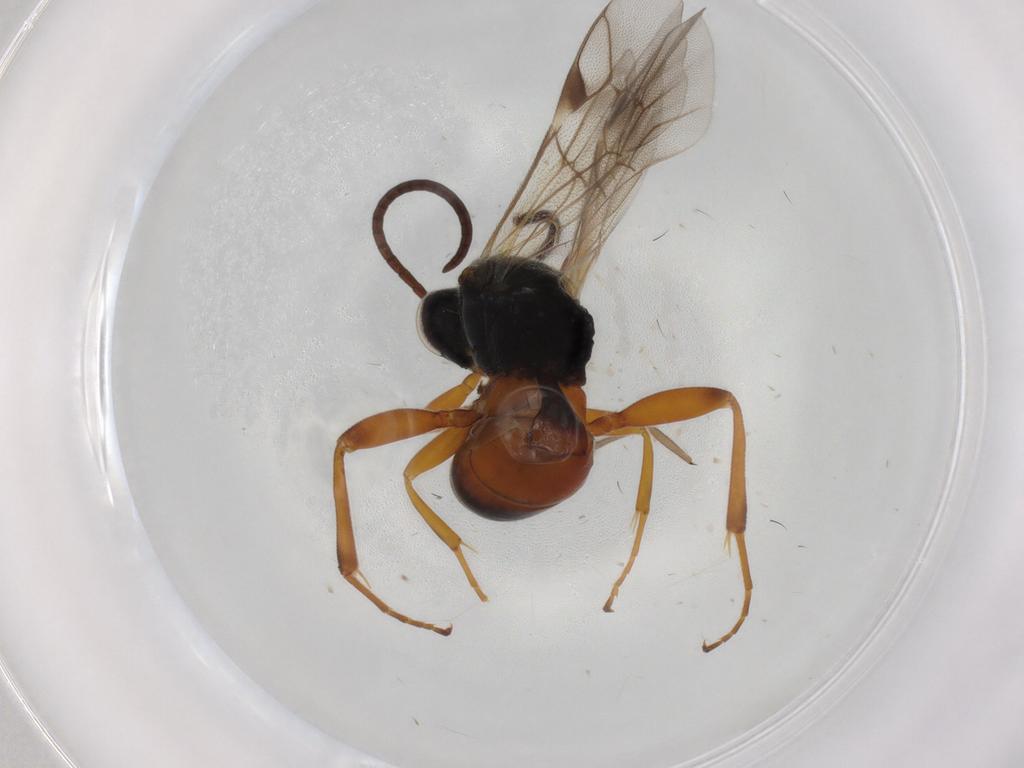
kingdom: Animalia
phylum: Arthropoda
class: Insecta
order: Hymenoptera
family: Ichneumonidae
